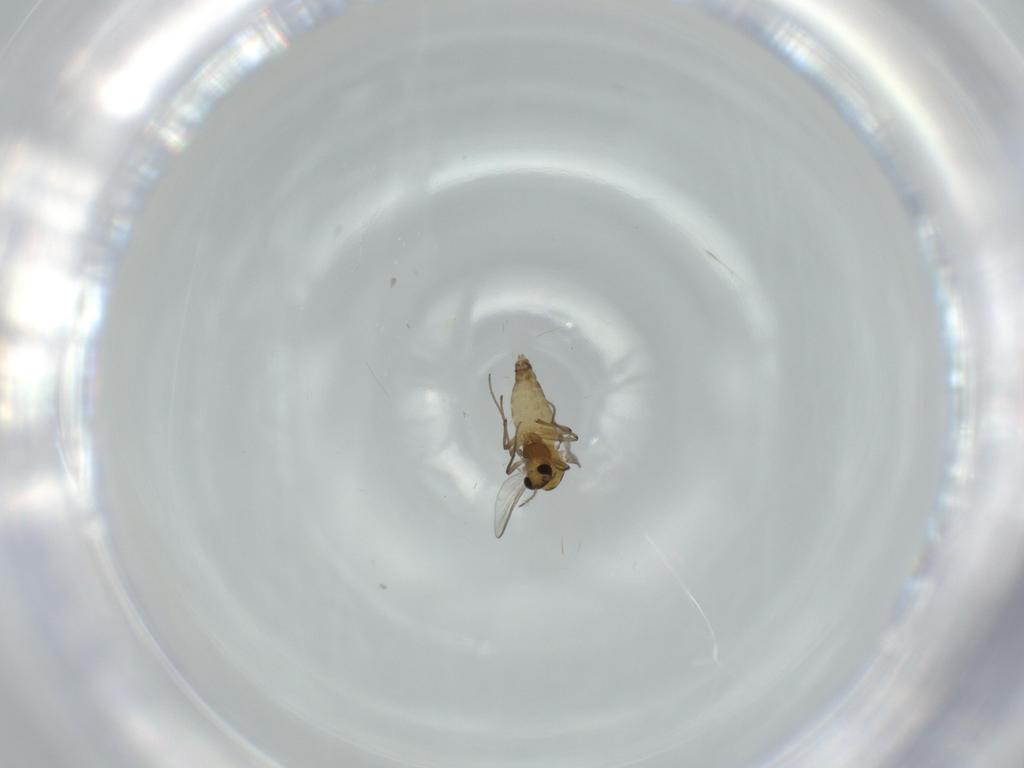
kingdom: Animalia
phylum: Arthropoda
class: Insecta
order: Diptera
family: Chironomidae
